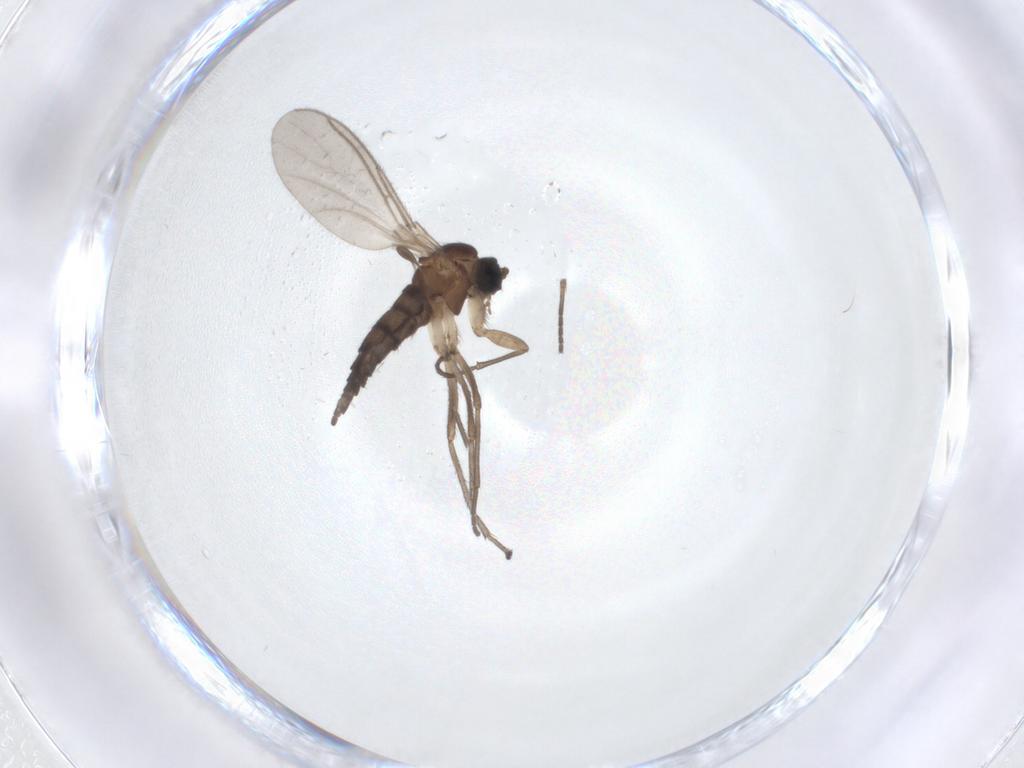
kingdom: Animalia
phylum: Arthropoda
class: Insecta
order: Diptera
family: Sciaridae
